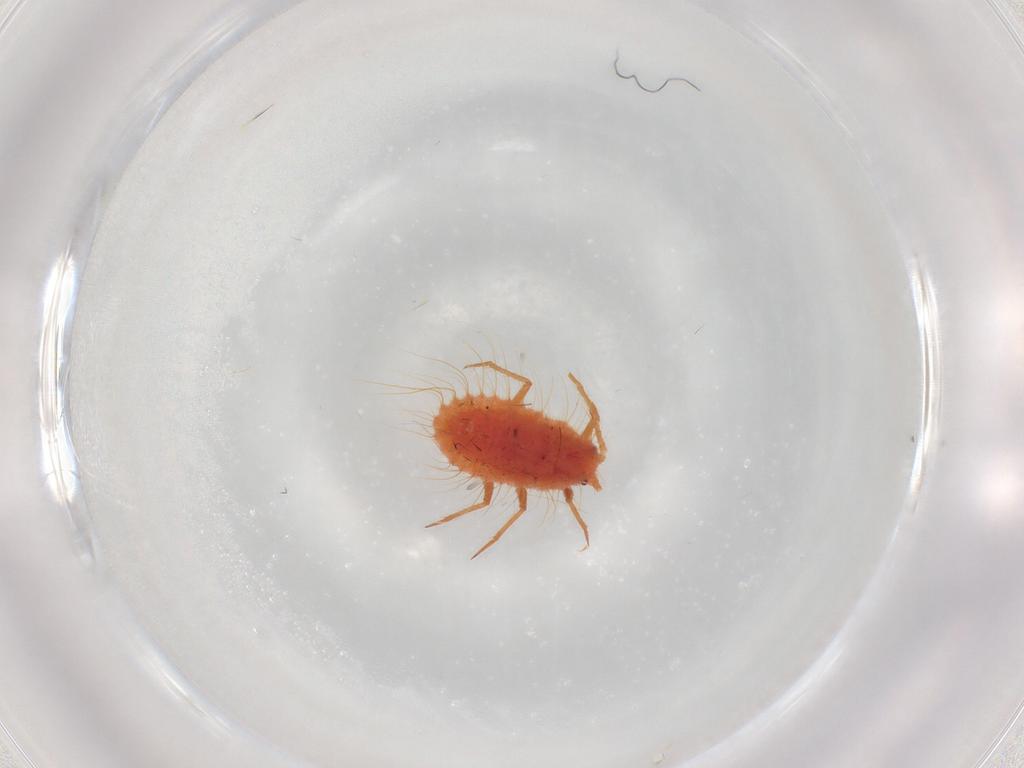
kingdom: Animalia
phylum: Arthropoda
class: Insecta
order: Hemiptera
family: Monophlebidae
